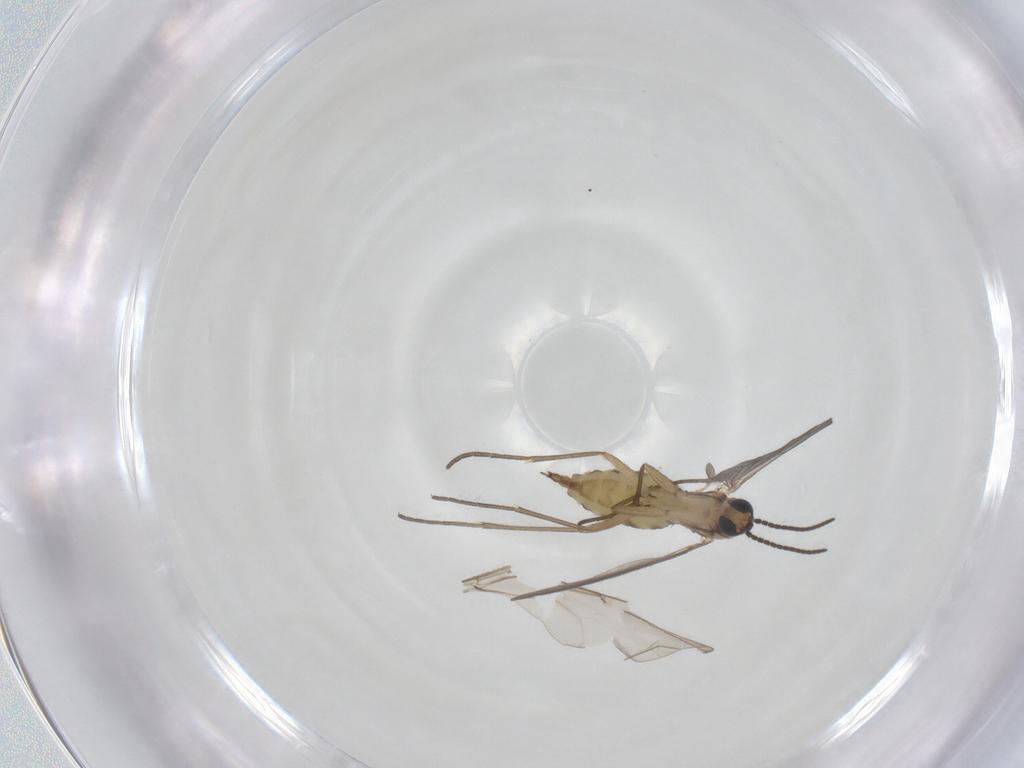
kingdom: Animalia
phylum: Arthropoda
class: Insecta
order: Diptera
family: Sciaridae
